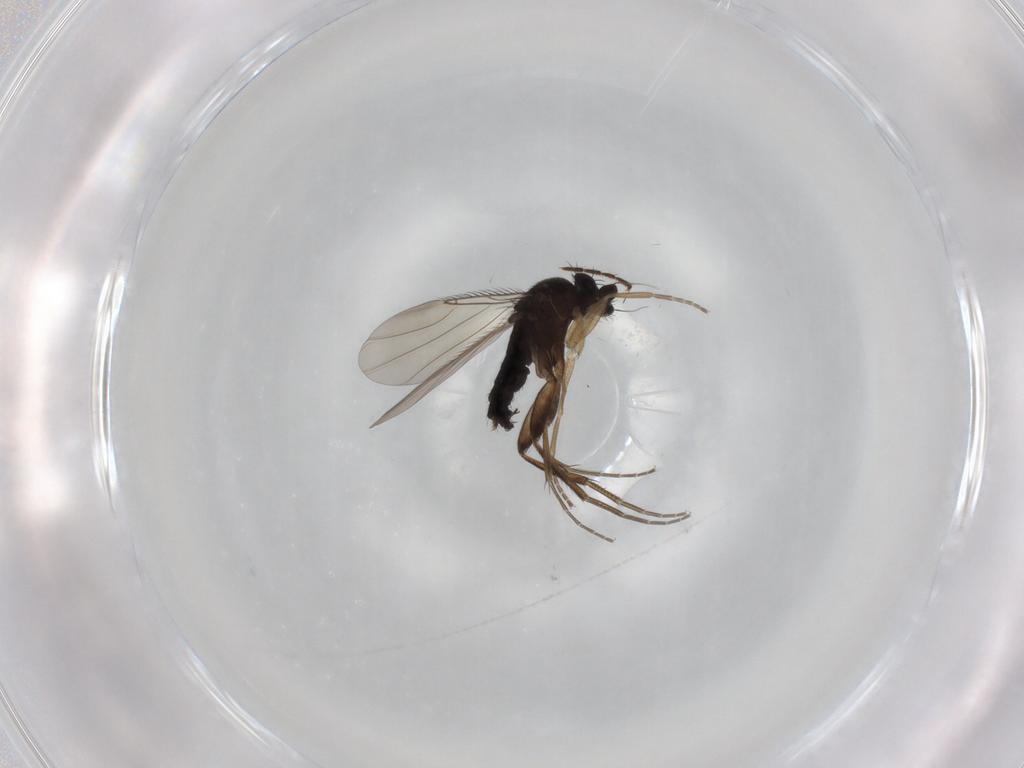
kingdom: Animalia
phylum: Arthropoda
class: Insecta
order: Diptera
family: Phoridae
